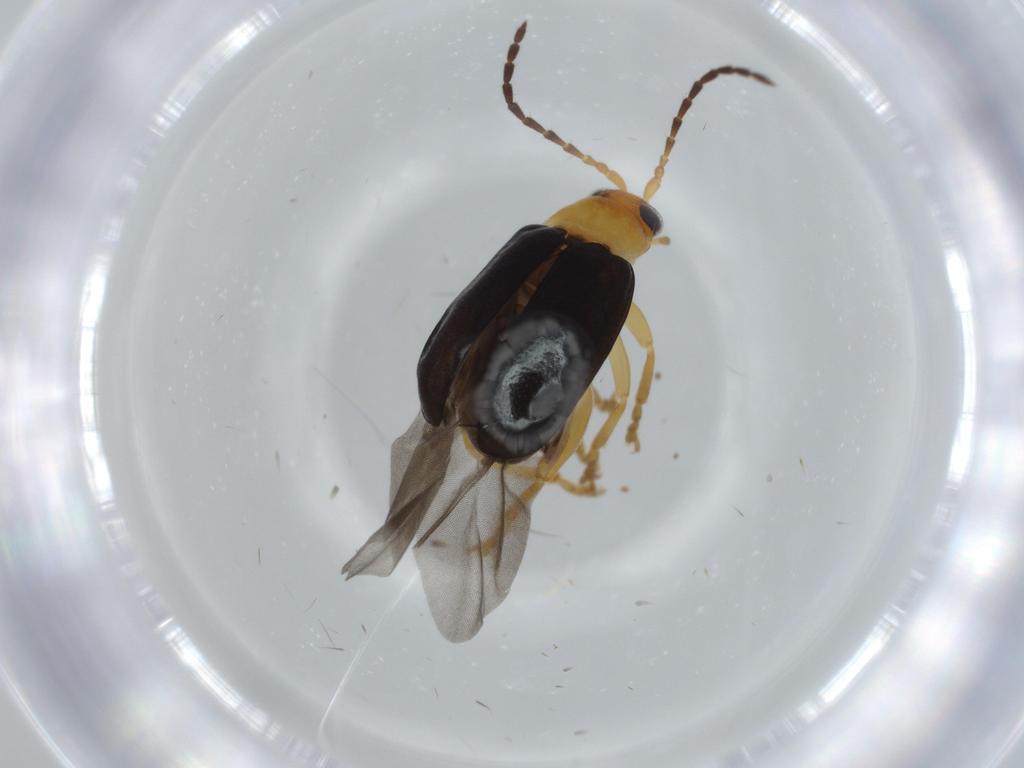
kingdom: Animalia
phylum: Arthropoda
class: Insecta
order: Coleoptera
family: Chrysomelidae
